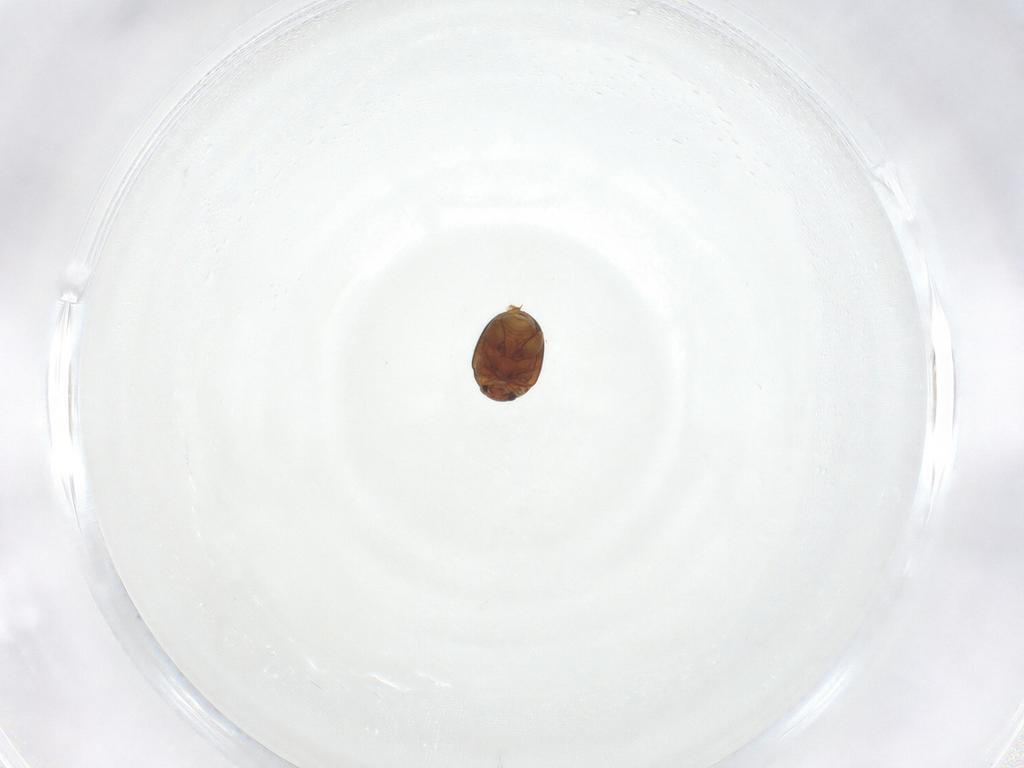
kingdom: Animalia
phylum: Arthropoda
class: Insecta
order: Coleoptera
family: Chrysomelidae
